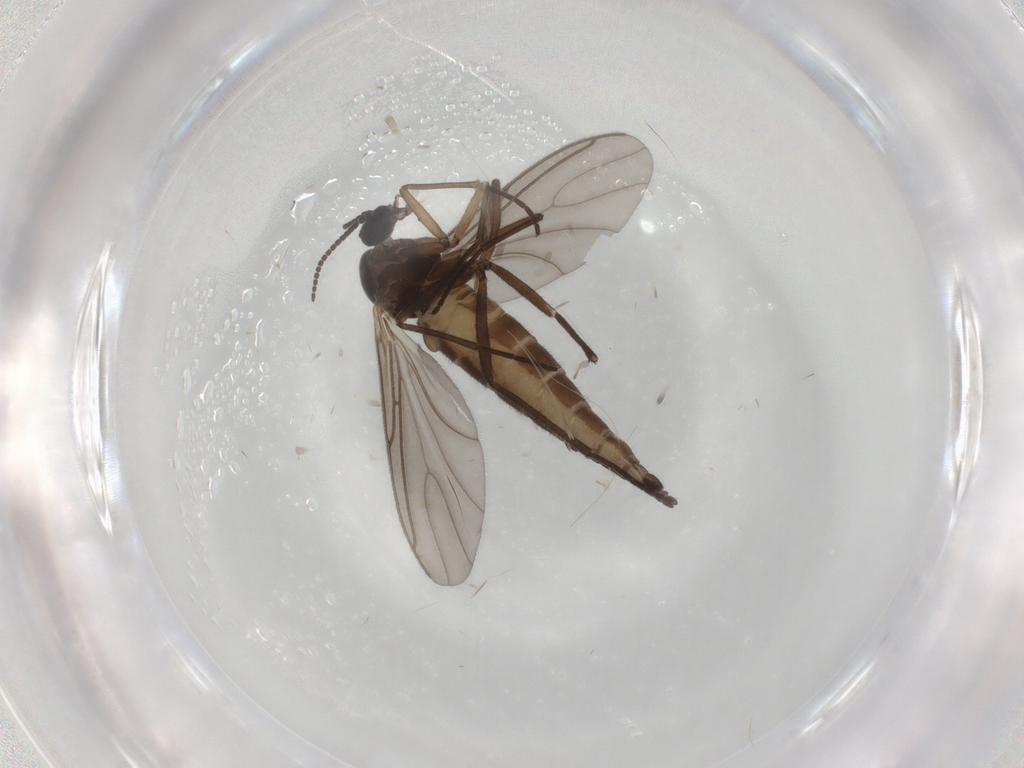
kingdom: Animalia
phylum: Arthropoda
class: Insecta
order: Diptera
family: Sciaridae
